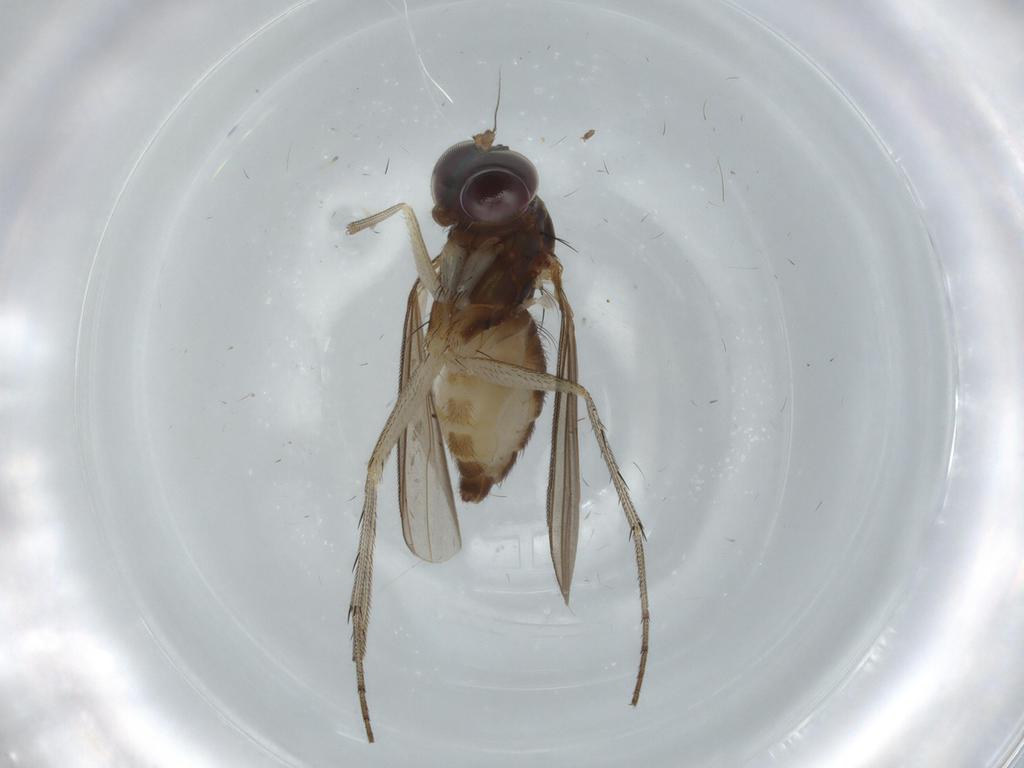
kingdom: Animalia
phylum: Arthropoda
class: Insecta
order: Diptera
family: Dolichopodidae
